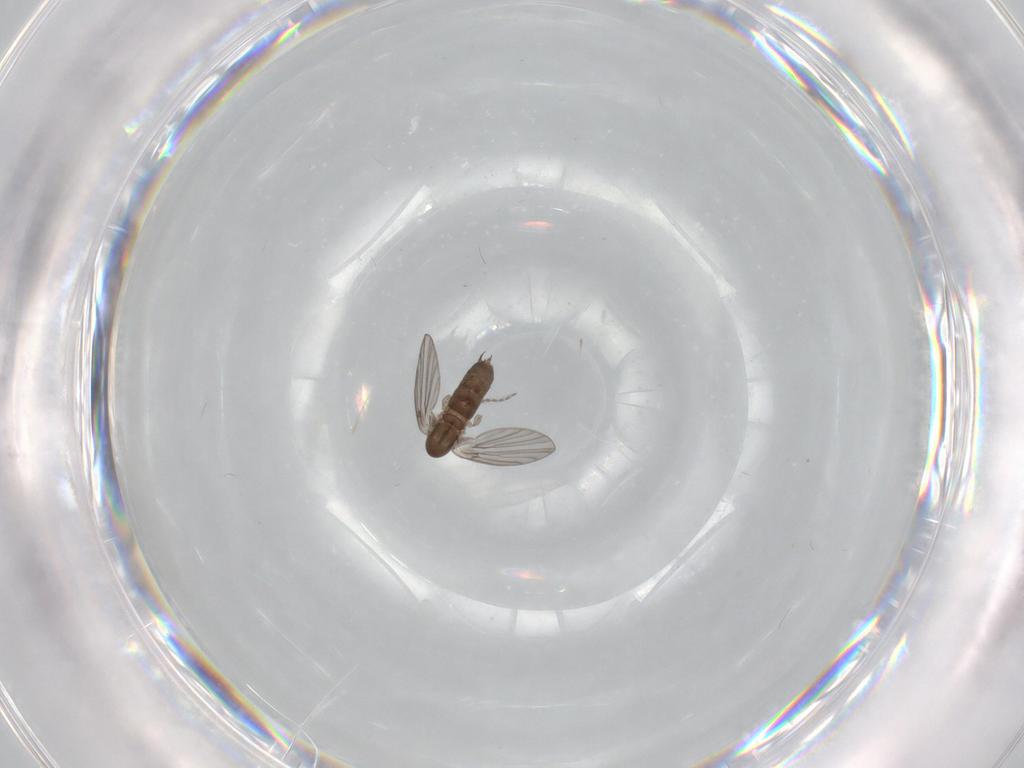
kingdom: Animalia
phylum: Arthropoda
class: Insecta
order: Diptera
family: Psychodidae
